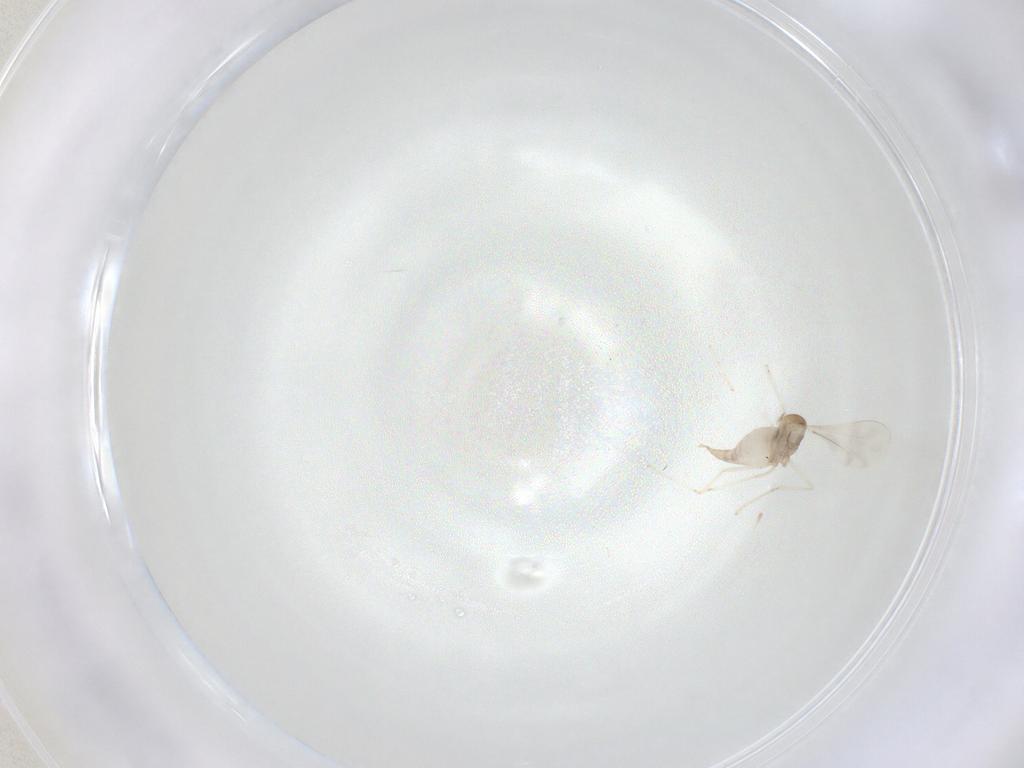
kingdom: Animalia
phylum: Arthropoda
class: Insecta
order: Diptera
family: Cecidomyiidae
